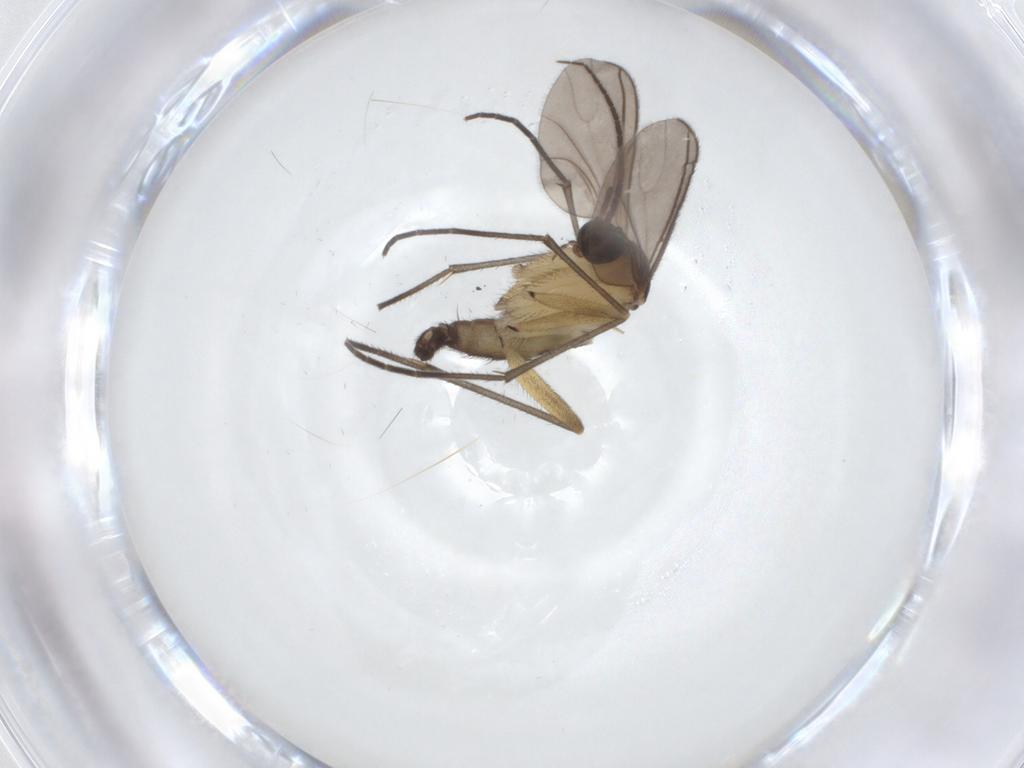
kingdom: Animalia
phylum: Arthropoda
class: Insecta
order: Diptera
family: Sciaridae
